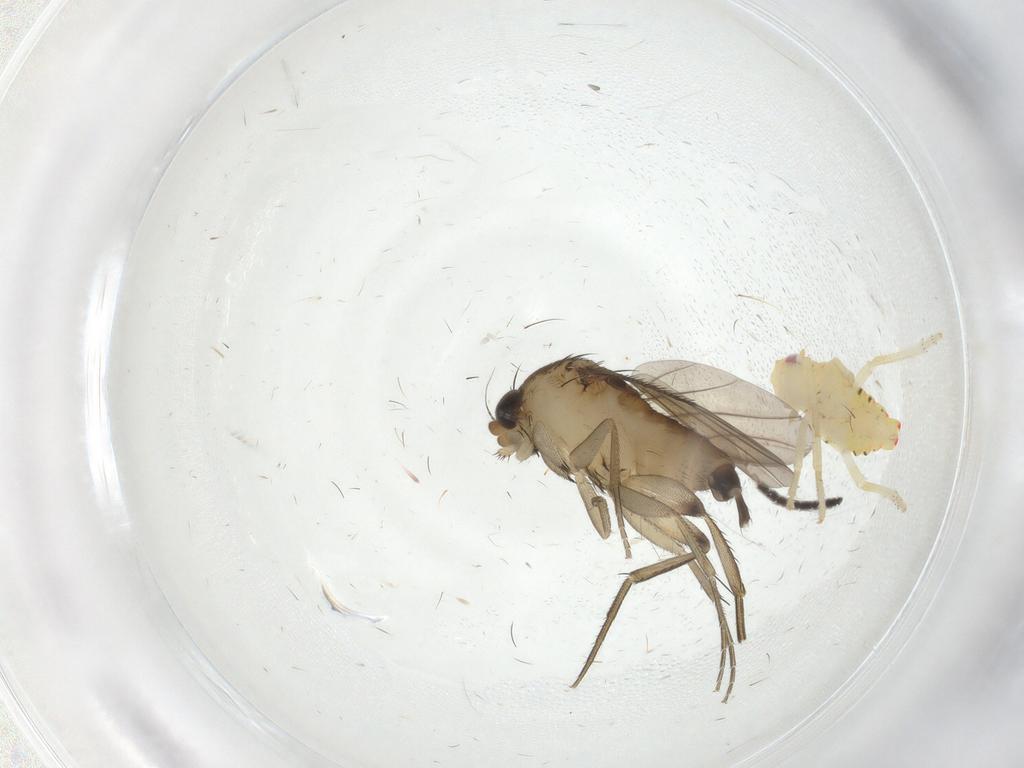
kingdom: Animalia
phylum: Arthropoda
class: Insecta
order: Hemiptera
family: Tropiduchidae
